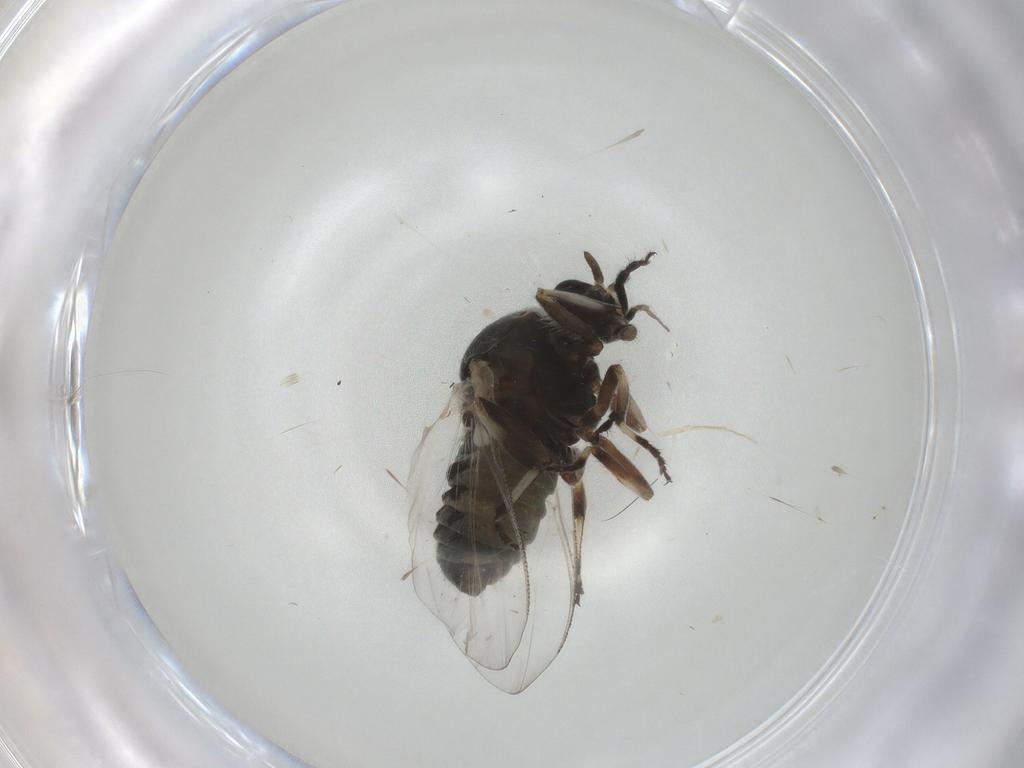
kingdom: Animalia
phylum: Arthropoda
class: Insecta
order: Diptera
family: Simuliidae
